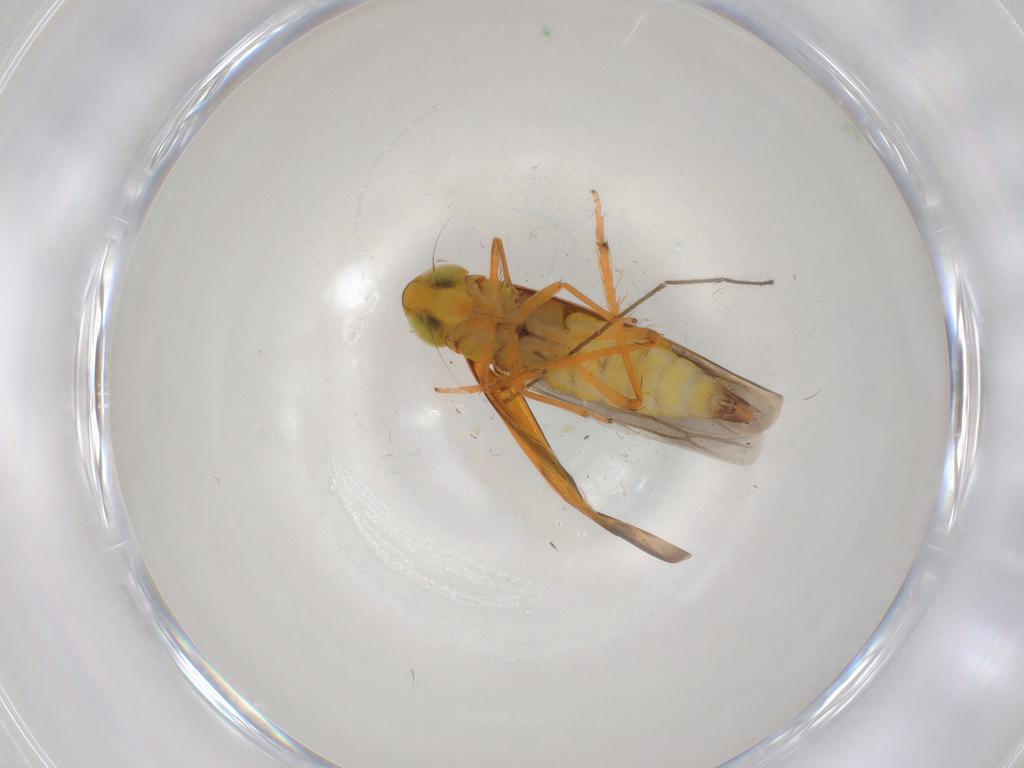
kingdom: Animalia
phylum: Arthropoda
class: Insecta
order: Hemiptera
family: Cicadellidae
